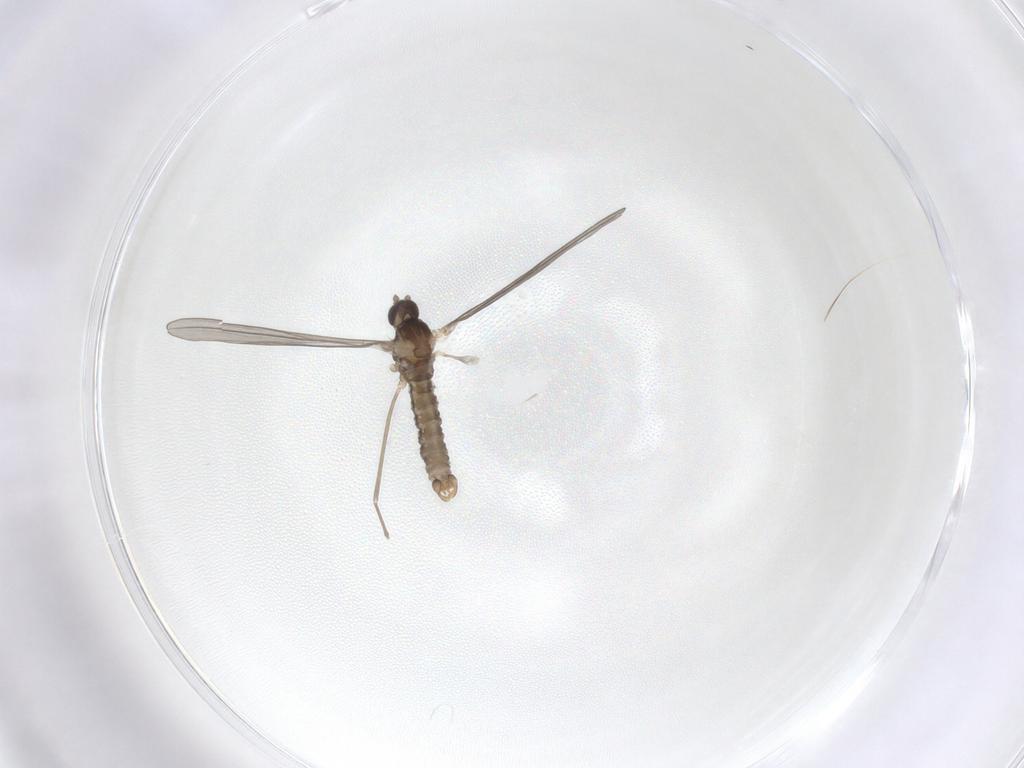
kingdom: Animalia
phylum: Arthropoda
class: Insecta
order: Diptera
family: Cecidomyiidae
